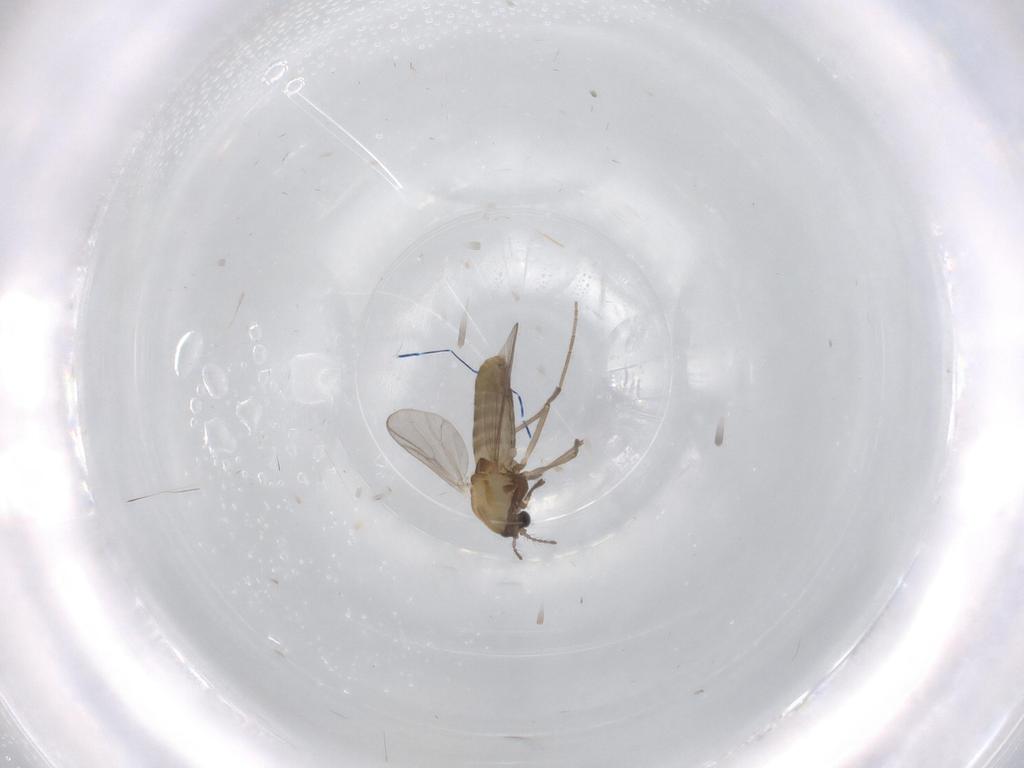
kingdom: Animalia
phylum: Arthropoda
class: Insecta
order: Diptera
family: Chironomidae
